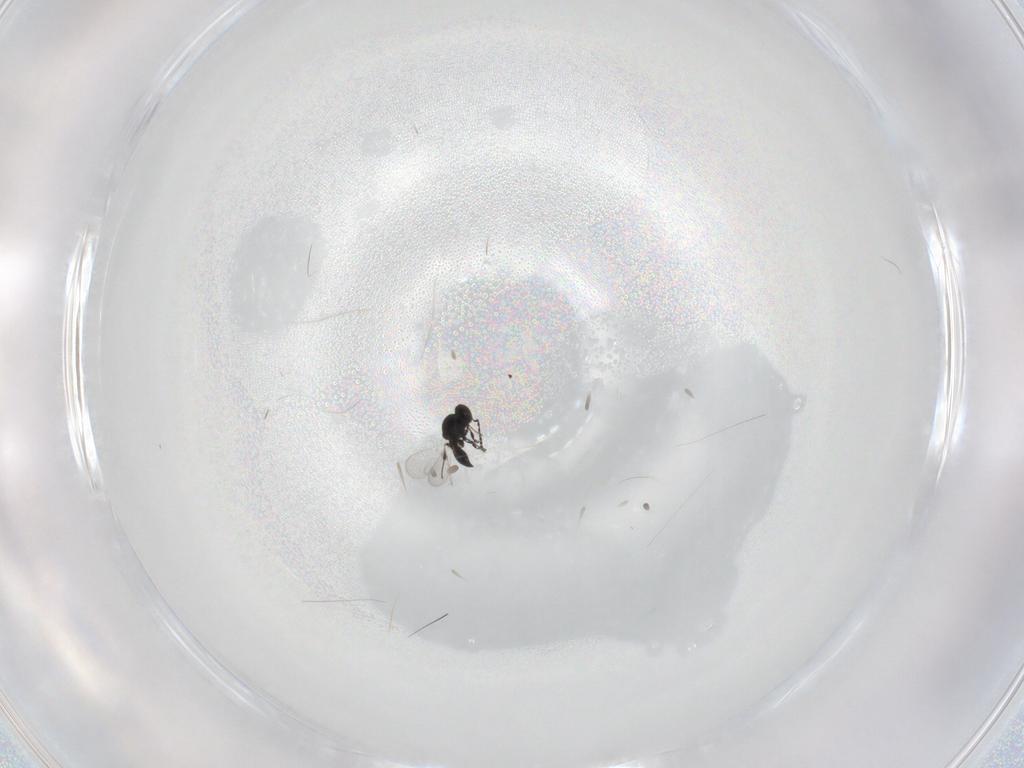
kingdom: Animalia
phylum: Arthropoda
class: Insecta
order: Hymenoptera
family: Platygastridae
